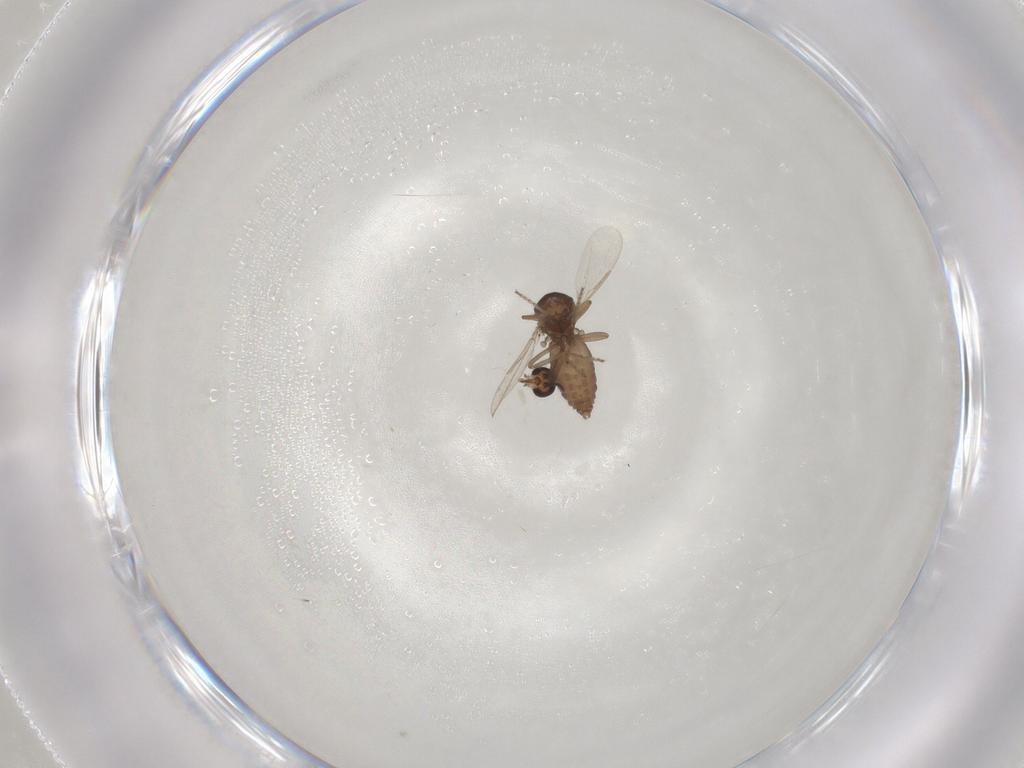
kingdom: Animalia
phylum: Arthropoda
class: Insecta
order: Diptera
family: Ceratopogonidae
